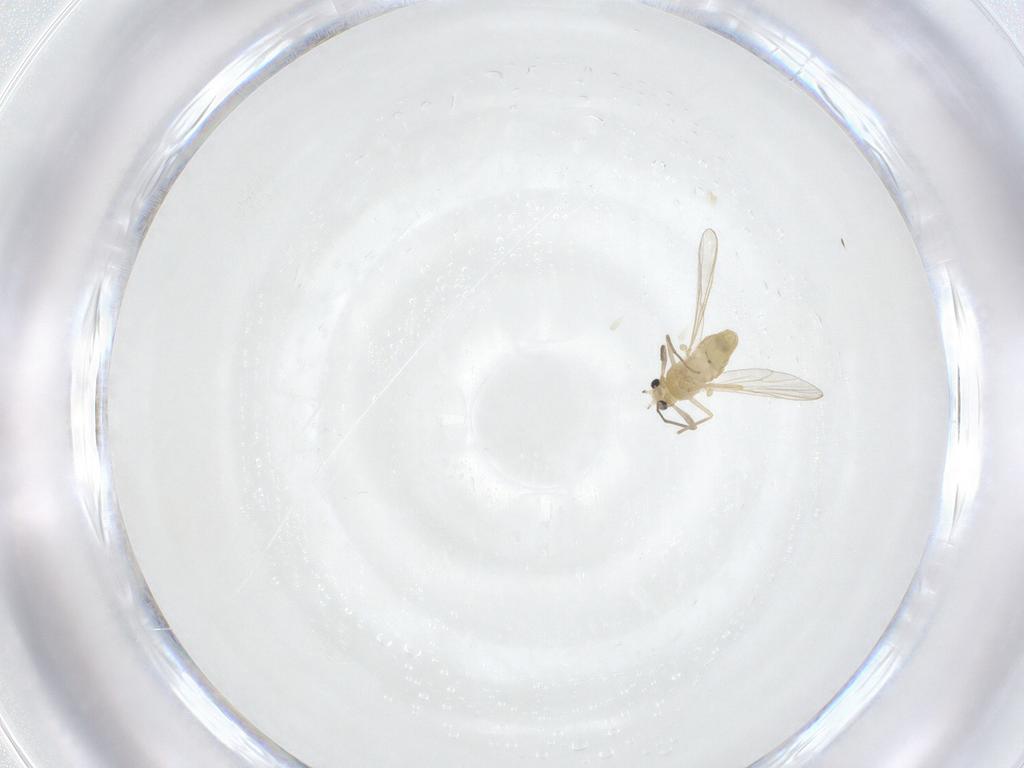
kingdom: Animalia
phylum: Arthropoda
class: Insecta
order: Diptera
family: Chironomidae
